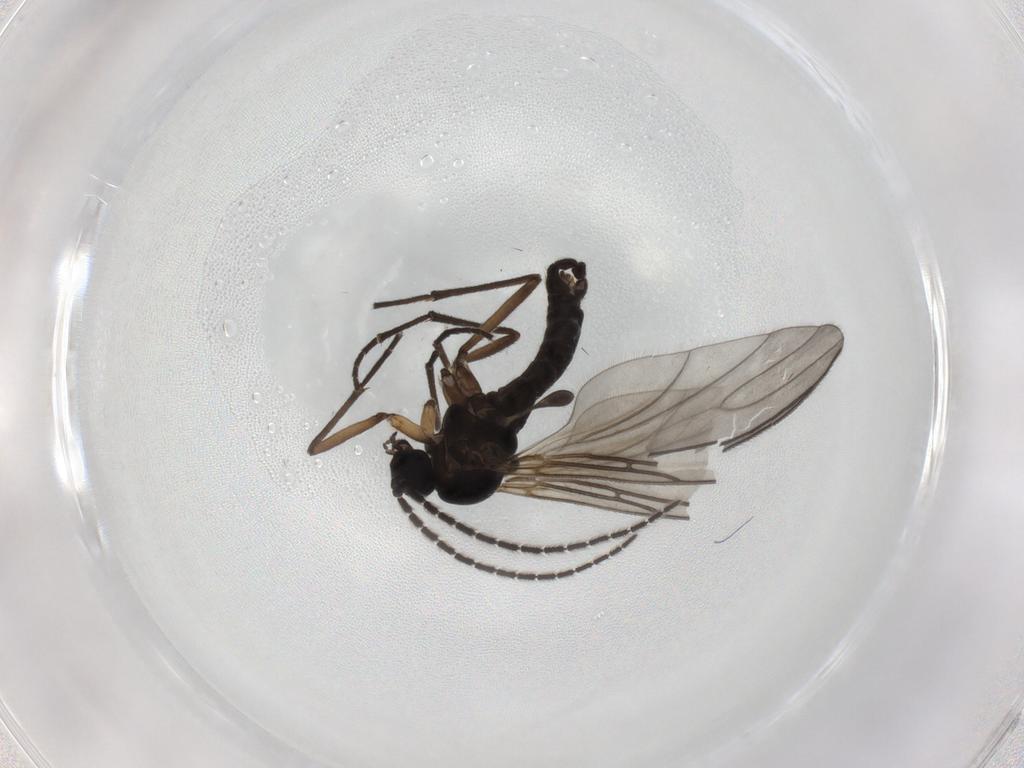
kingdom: Animalia
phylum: Arthropoda
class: Insecta
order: Diptera
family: Sciaridae
